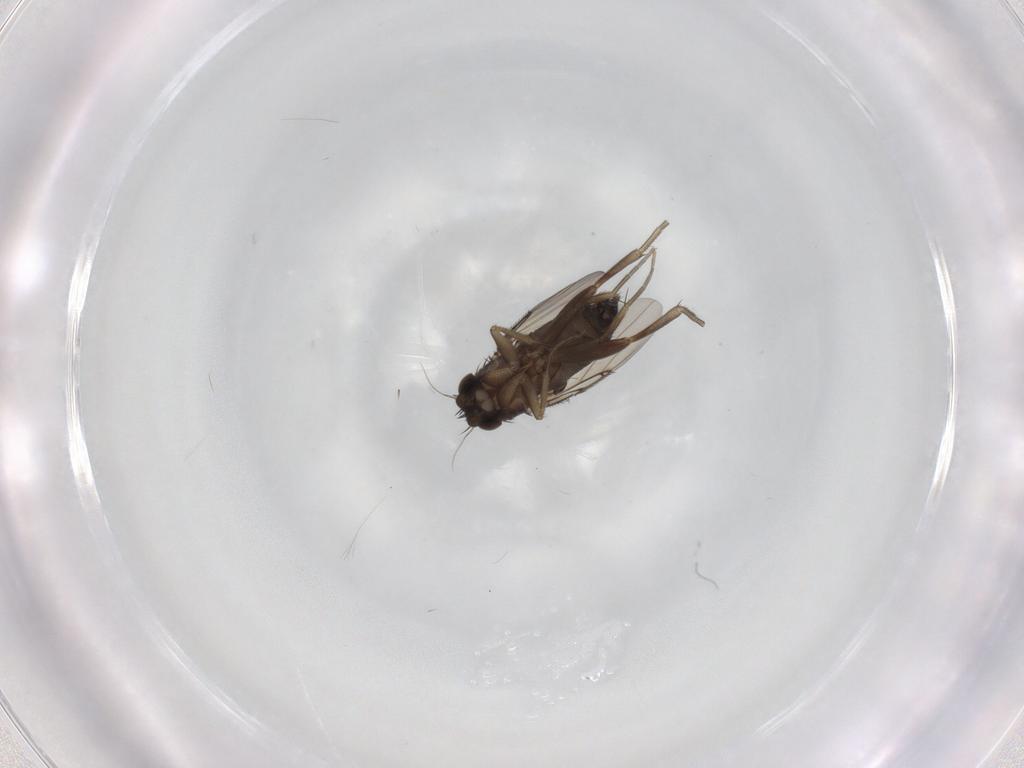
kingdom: Animalia
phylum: Arthropoda
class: Insecta
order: Diptera
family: Phoridae
